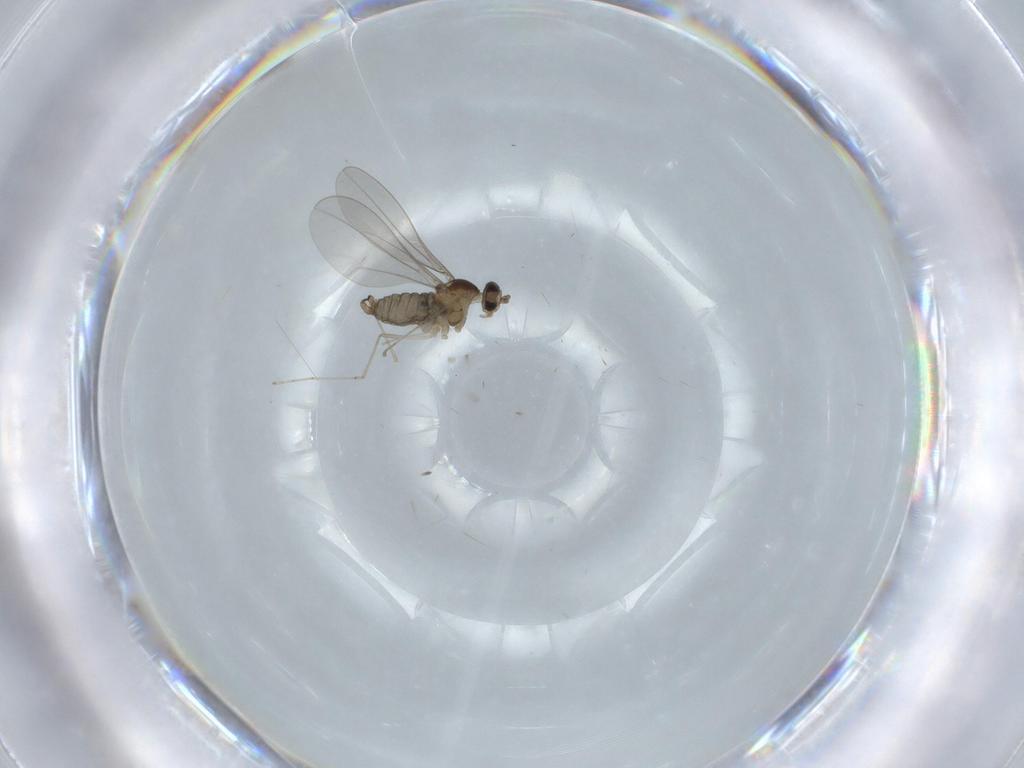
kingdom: Animalia
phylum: Arthropoda
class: Insecta
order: Diptera
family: Cecidomyiidae
